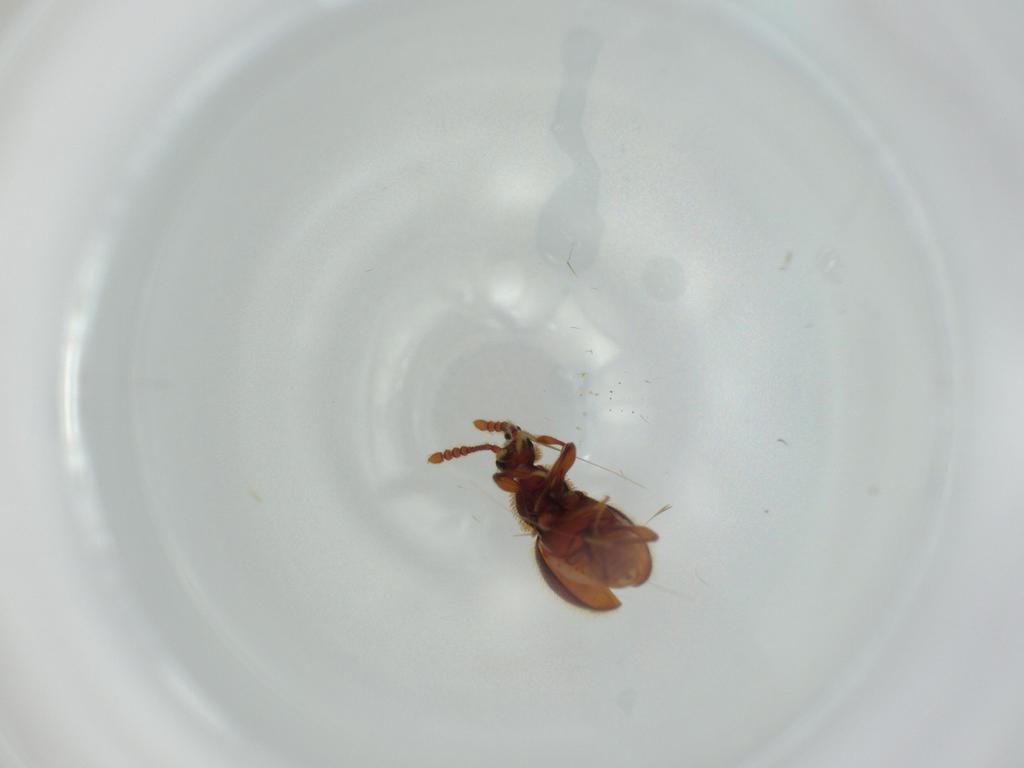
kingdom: Animalia
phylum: Arthropoda
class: Insecta
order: Coleoptera
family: Staphylinidae
